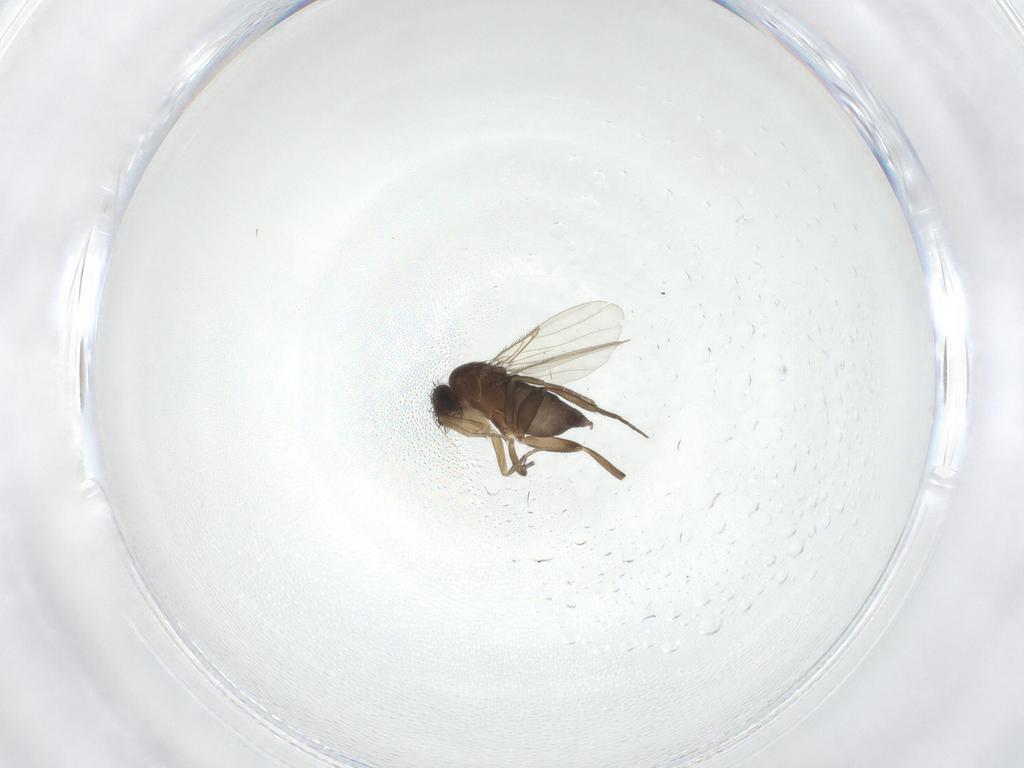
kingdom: Animalia
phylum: Arthropoda
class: Insecta
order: Diptera
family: Phoridae
